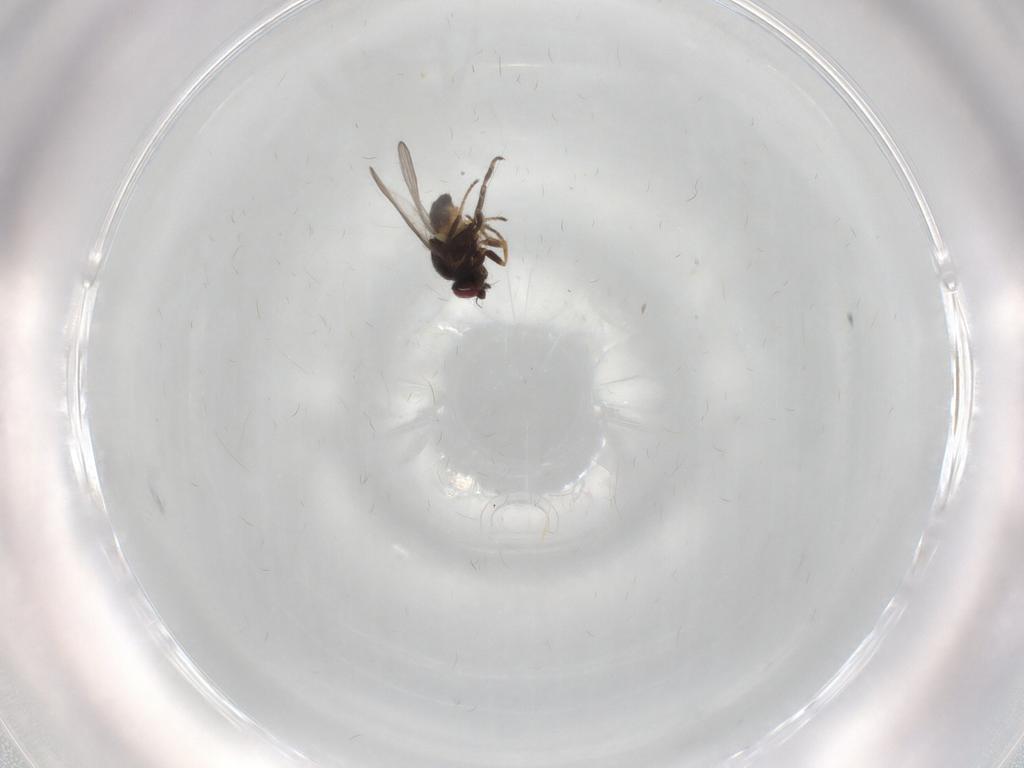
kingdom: Animalia
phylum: Arthropoda
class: Insecta
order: Diptera
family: Chloropidae
